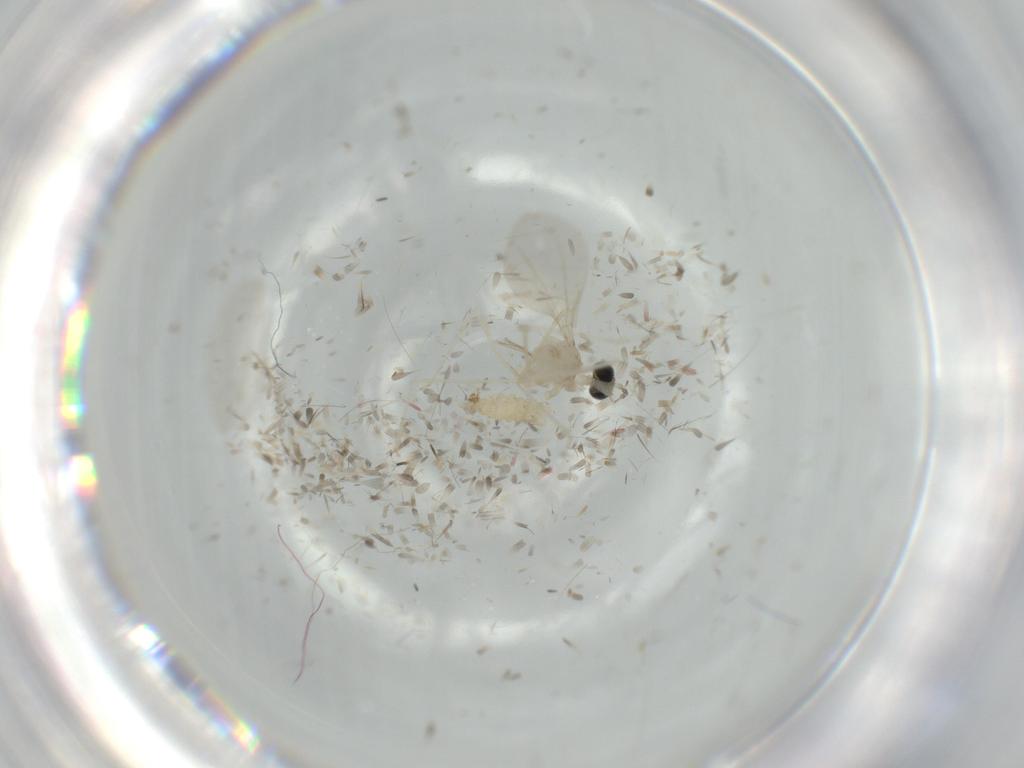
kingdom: Animalia
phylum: Arthropoda
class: Insecta
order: Diptera
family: Cecidomyiidae
